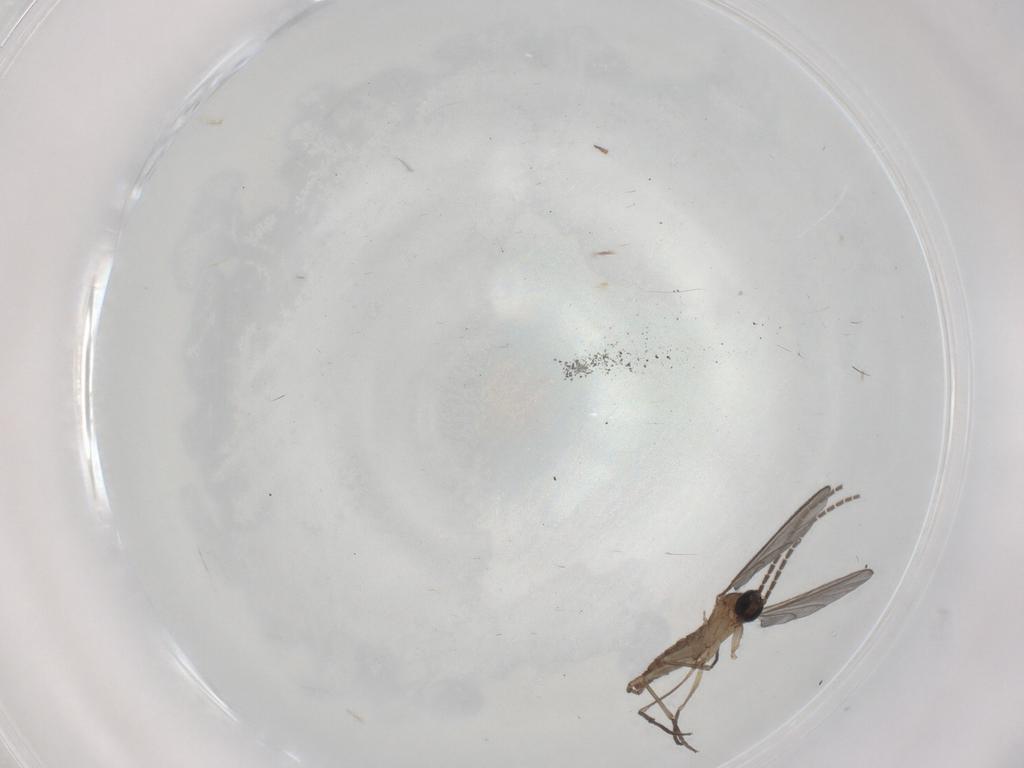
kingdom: Animalia
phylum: Arthropoda
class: Insecta
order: Diptera
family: Sciaridae
